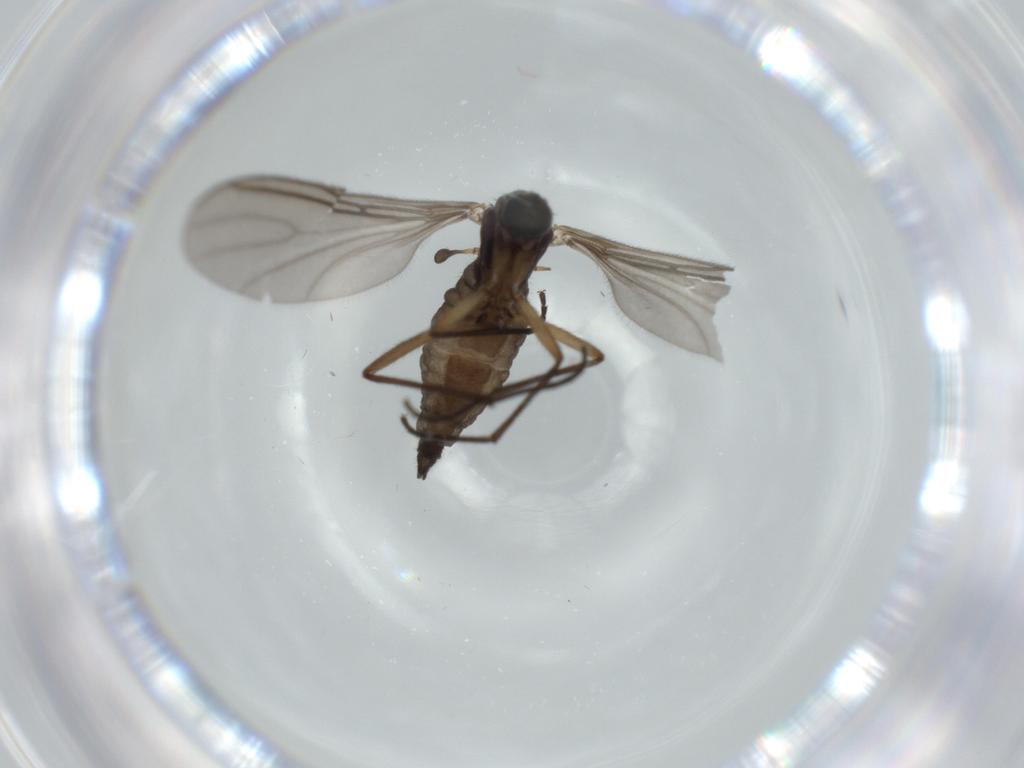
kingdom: Animalia
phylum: Arthropoda
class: Insecta
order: Diptera
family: Sciaridae
